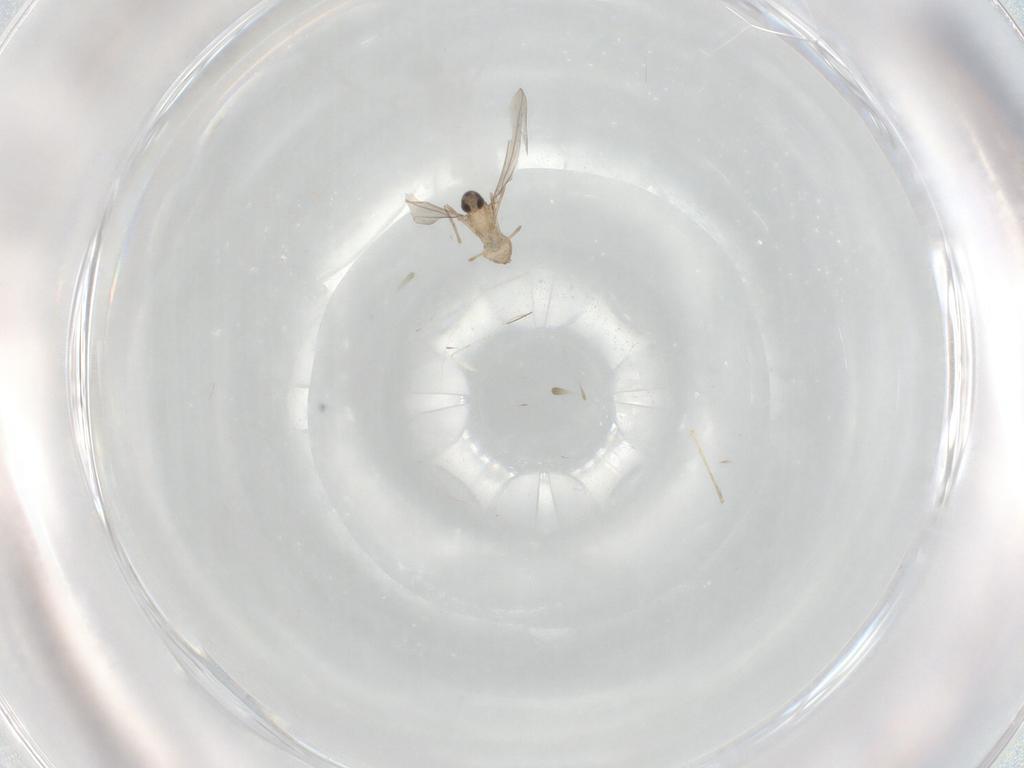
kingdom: Animalia
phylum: Arthropoda
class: Insecta
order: Diptera
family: Cecidomyiidae
